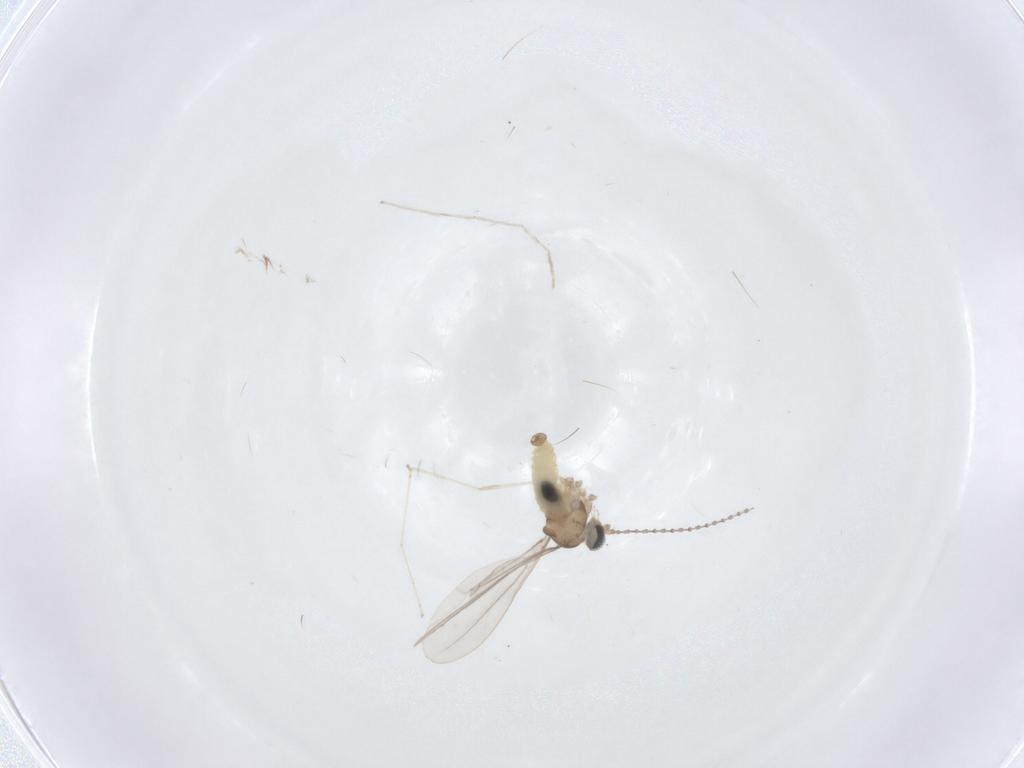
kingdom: Animalia
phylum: Arthropoda
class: Insecta
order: Diptera
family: Cecidomyiidae
